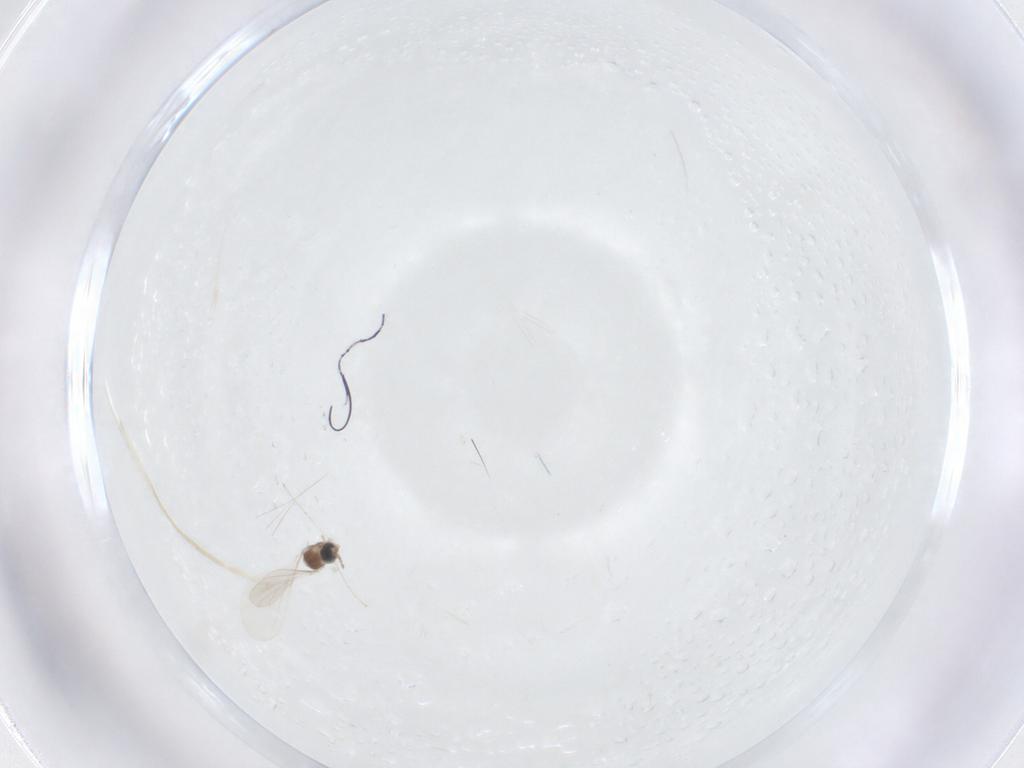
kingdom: Animalia
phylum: Arthropoda
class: Insecta
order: Diptera
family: Cecidomyiidae
